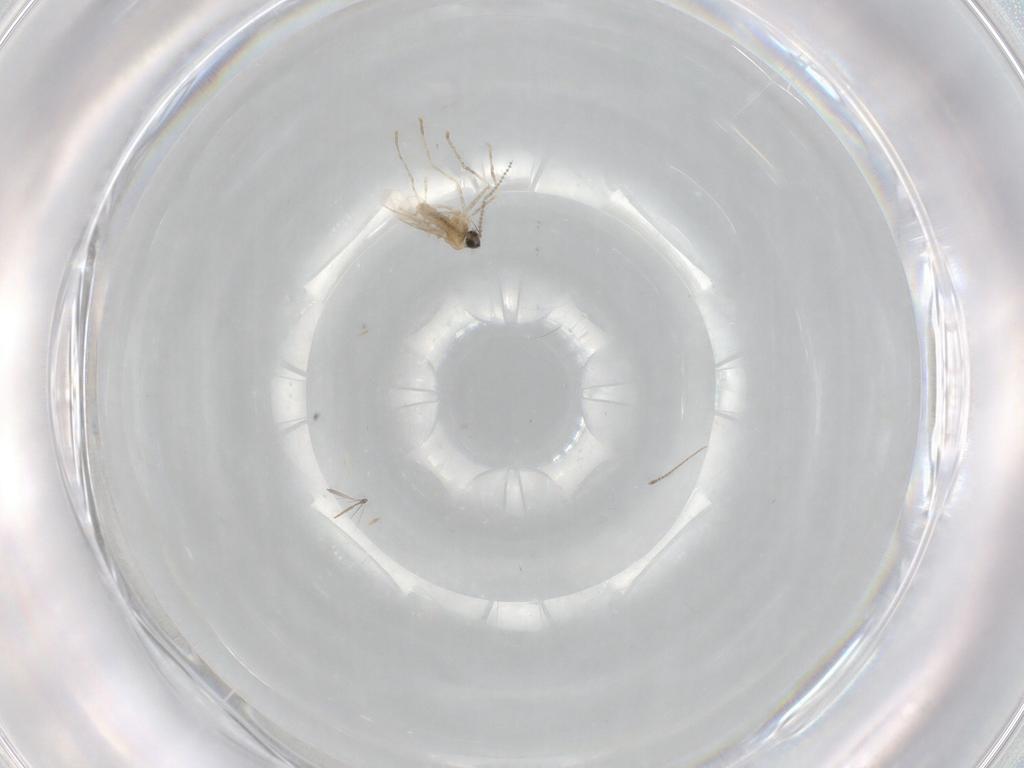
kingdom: Animalia
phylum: Arthropoda
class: Insecta
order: Diptera
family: Cecidomyiidae
